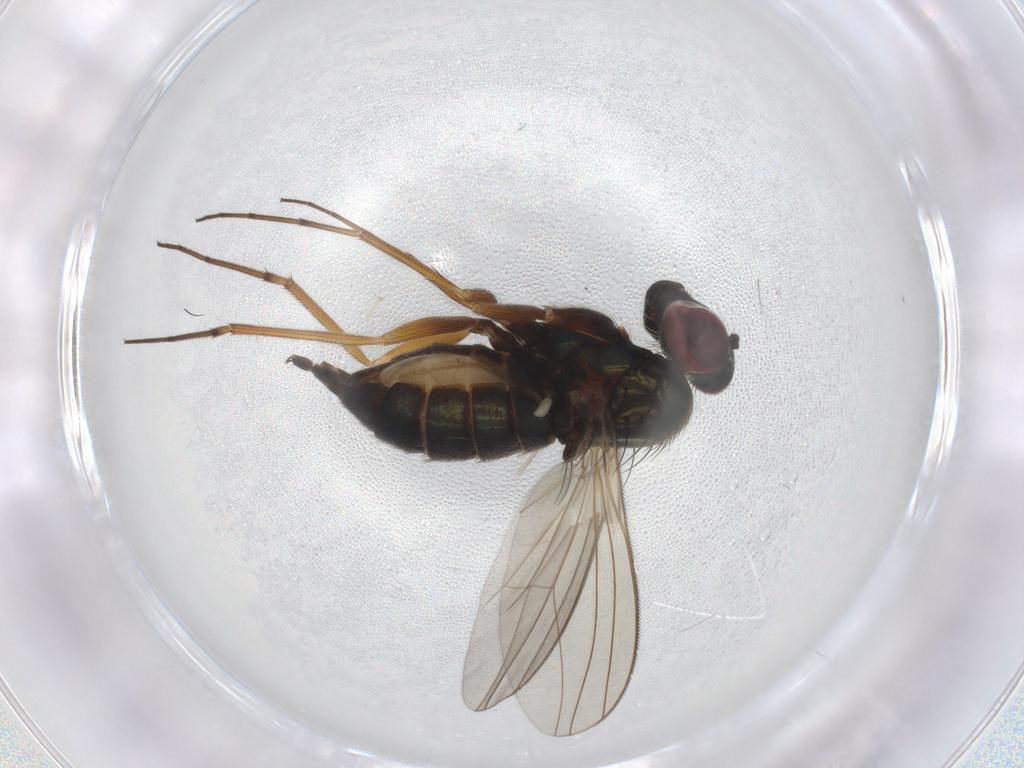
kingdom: Animalia
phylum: Arthropoda
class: Insecta
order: Diptera
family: Dolichopodidae
